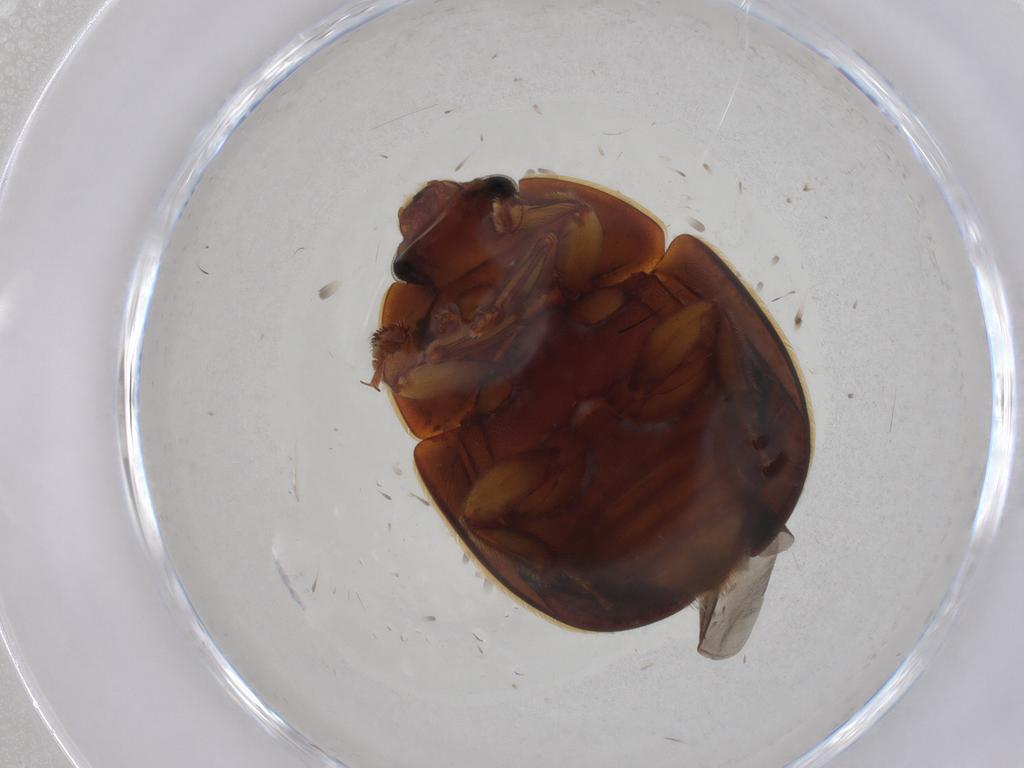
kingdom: Animalia
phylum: Arthropoda
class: Insecta
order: Coleoptera
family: Nitidulidae
